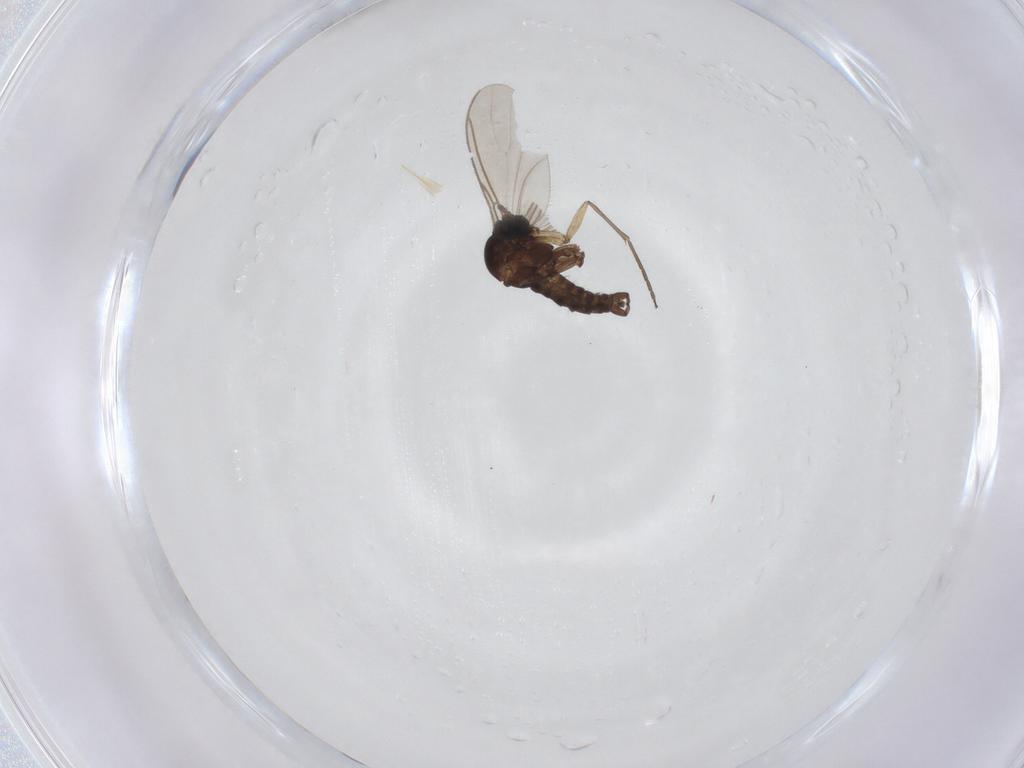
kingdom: Animalia
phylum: Arthropoda
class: Insecta
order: Diptera
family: Sciaridae
